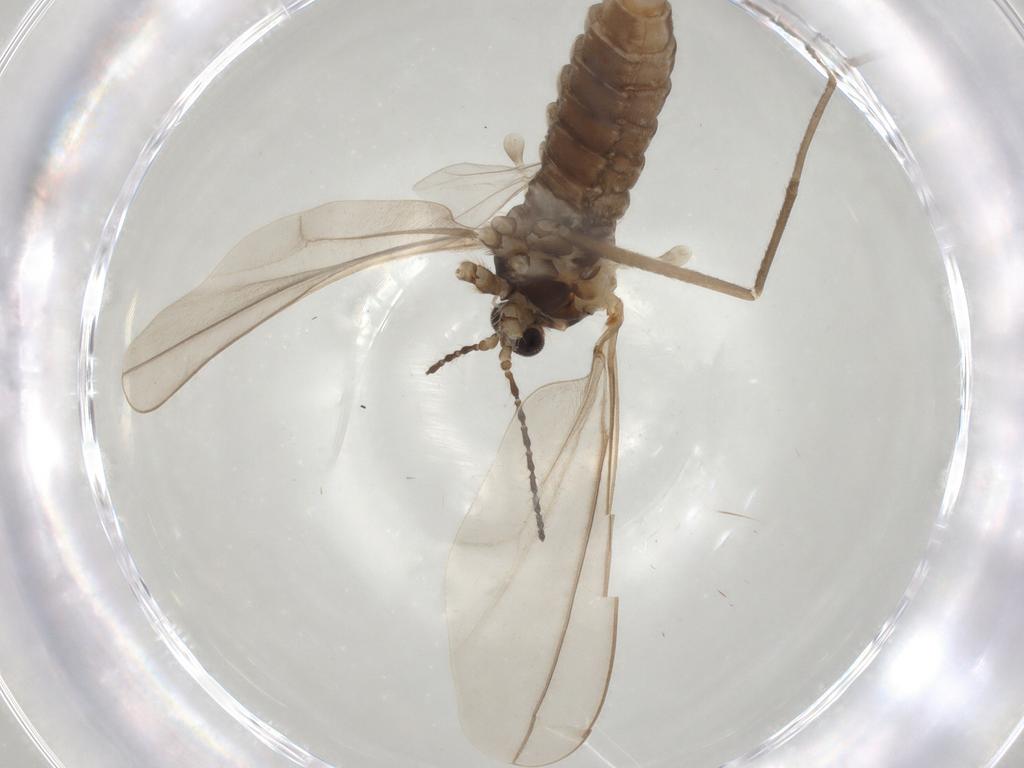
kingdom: Animalia
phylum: Arthropoda
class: Insecta
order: Diptera
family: Cecidomyiidae
